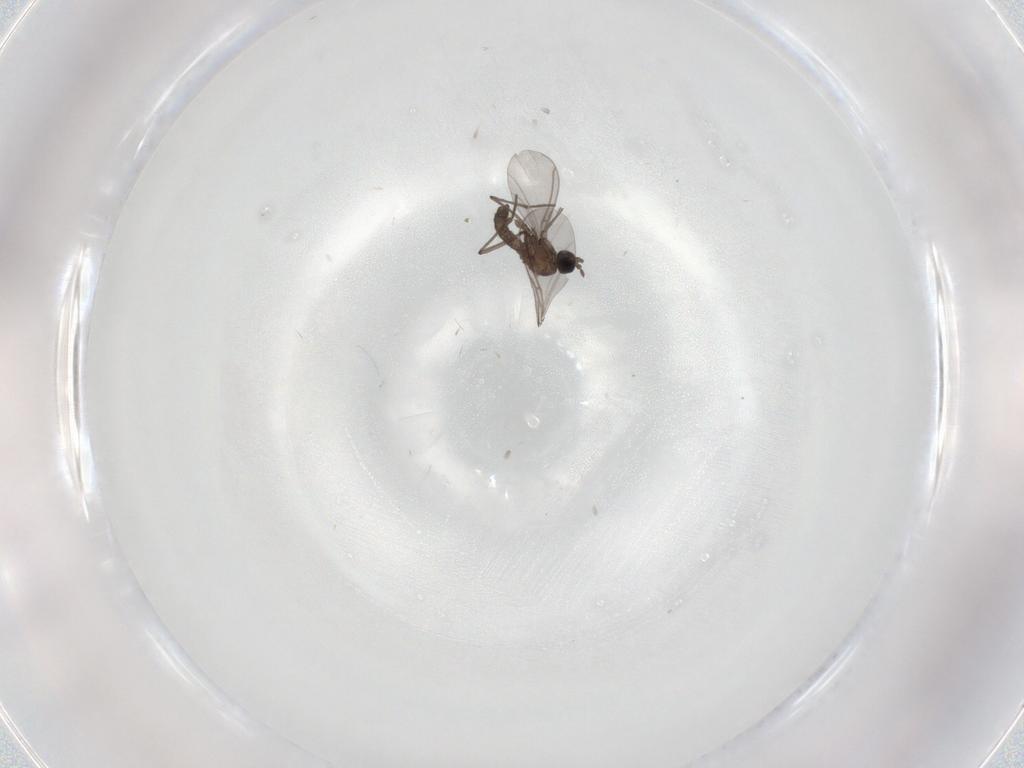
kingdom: Animalia
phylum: Arthropoda
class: Insecta
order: Diptera
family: Sciaridae
